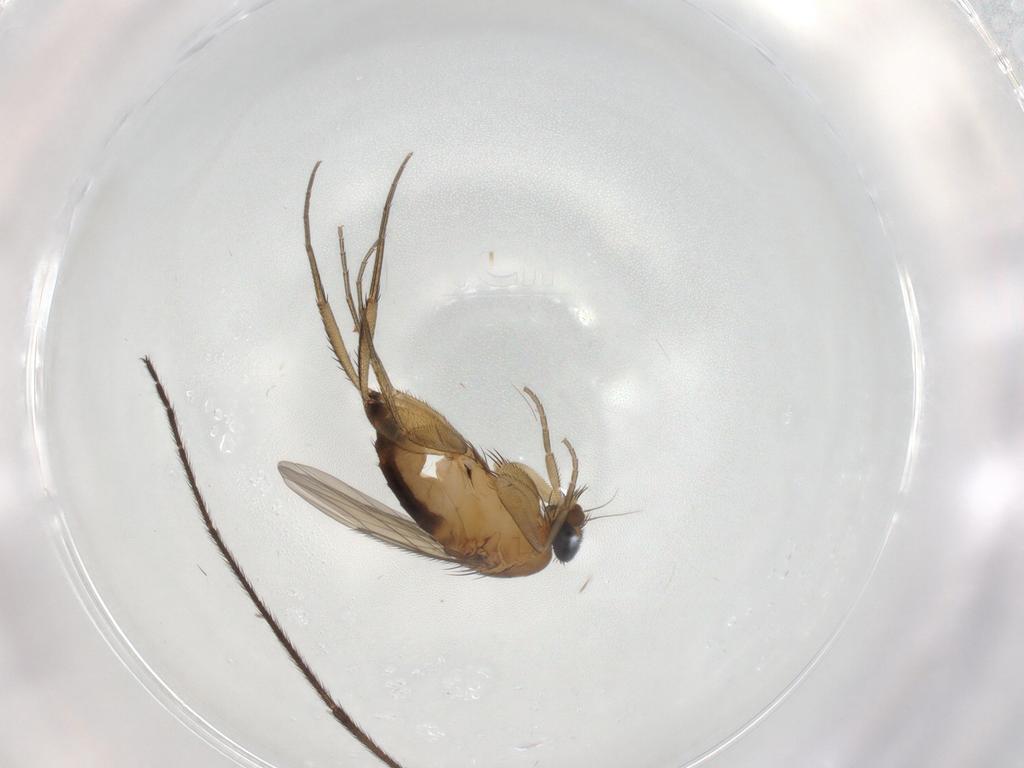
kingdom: Animalia
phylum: Arthropoda
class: Insecta
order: Diptera
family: Phoridae
